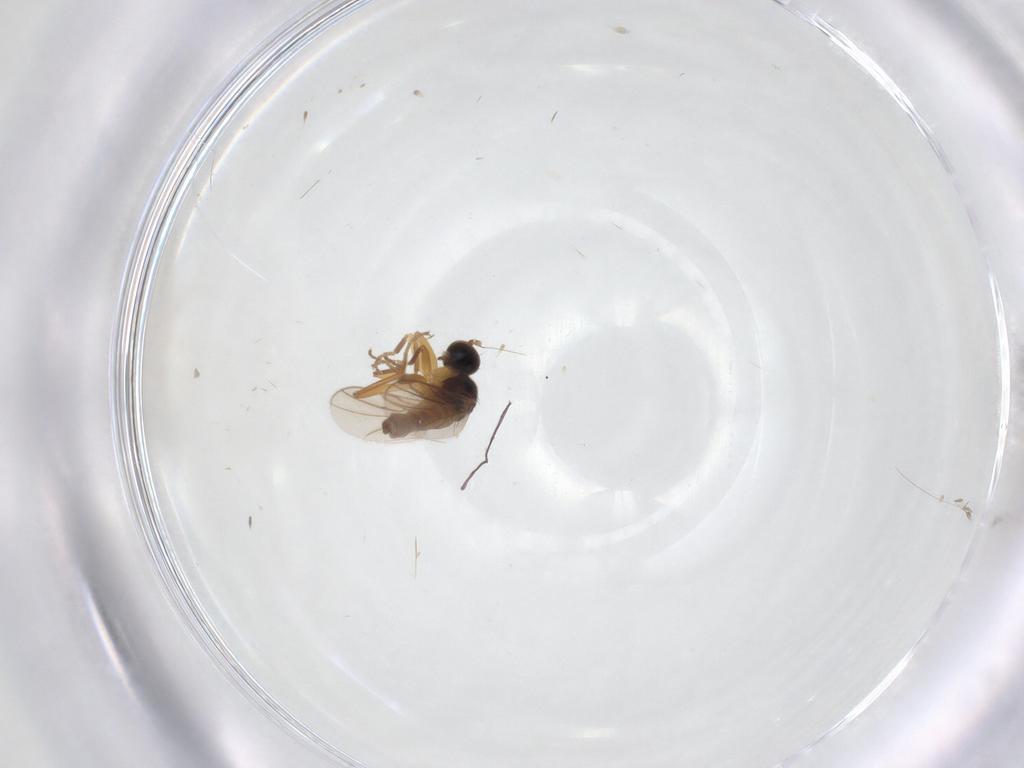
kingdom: Animalia
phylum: Arthropoda
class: Insecta
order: Diptera
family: Hybotidae
